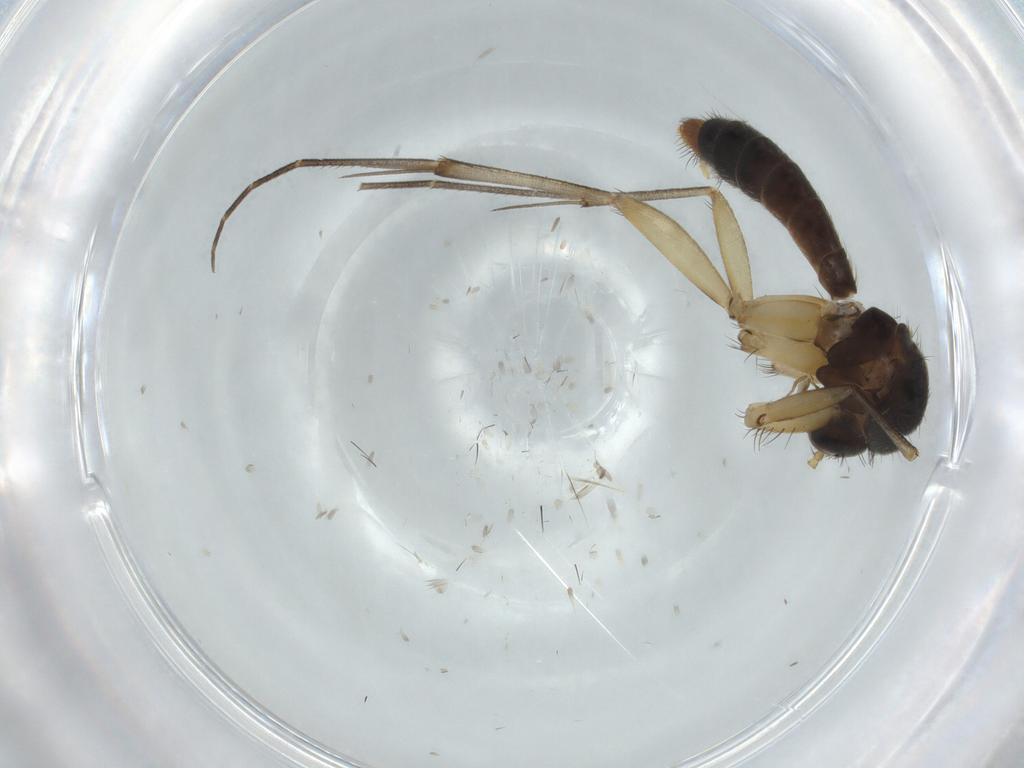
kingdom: Animalia
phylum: Arthropoda
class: Insecta
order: Diptera
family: Mycetophilidae
